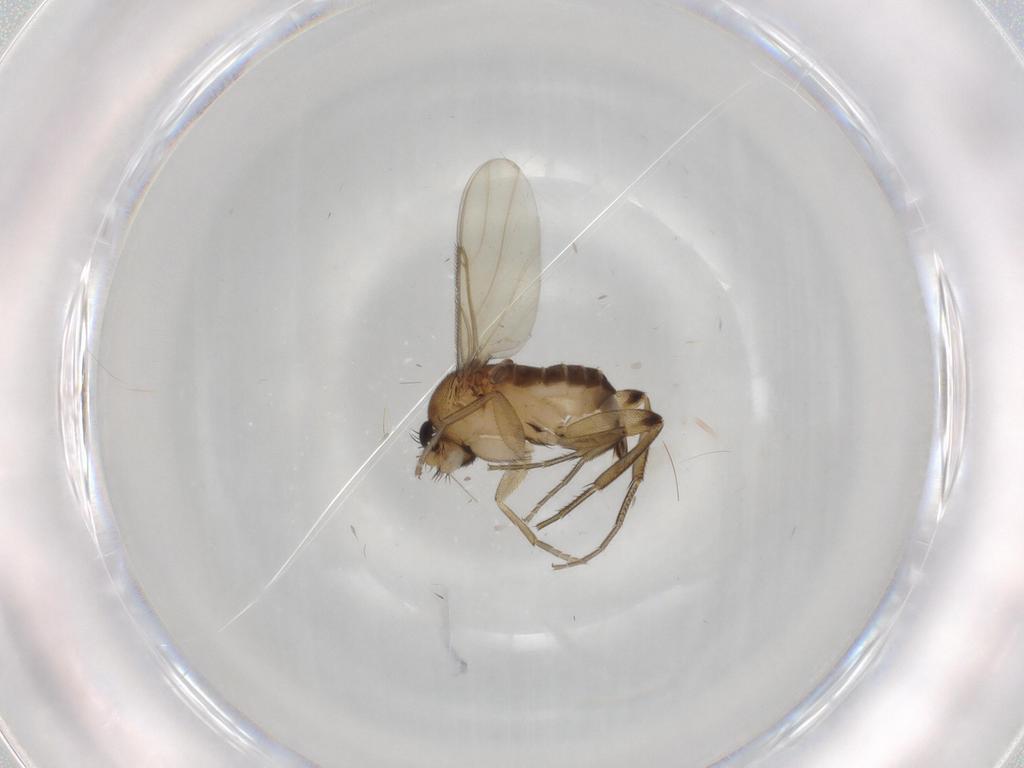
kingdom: Animalia
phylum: Arthropoda
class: Insecta
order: Diptera
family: Phoridae
